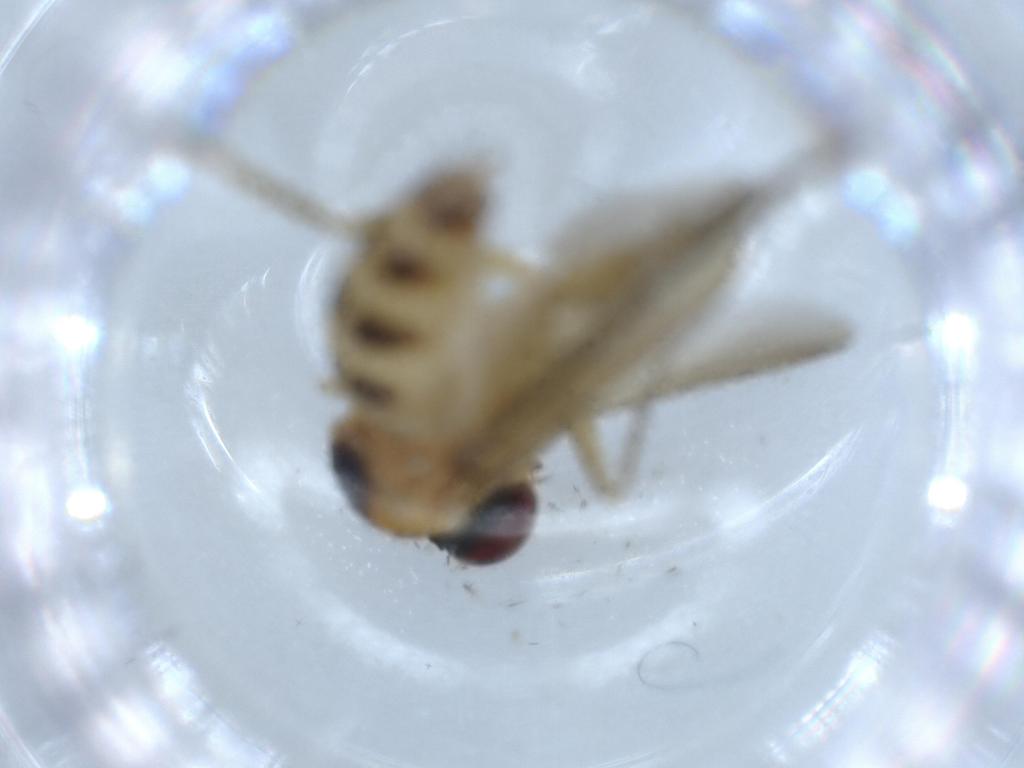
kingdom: Animalia
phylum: Arthropoda
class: Insecta
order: Diptera
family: Dolichopodidae
